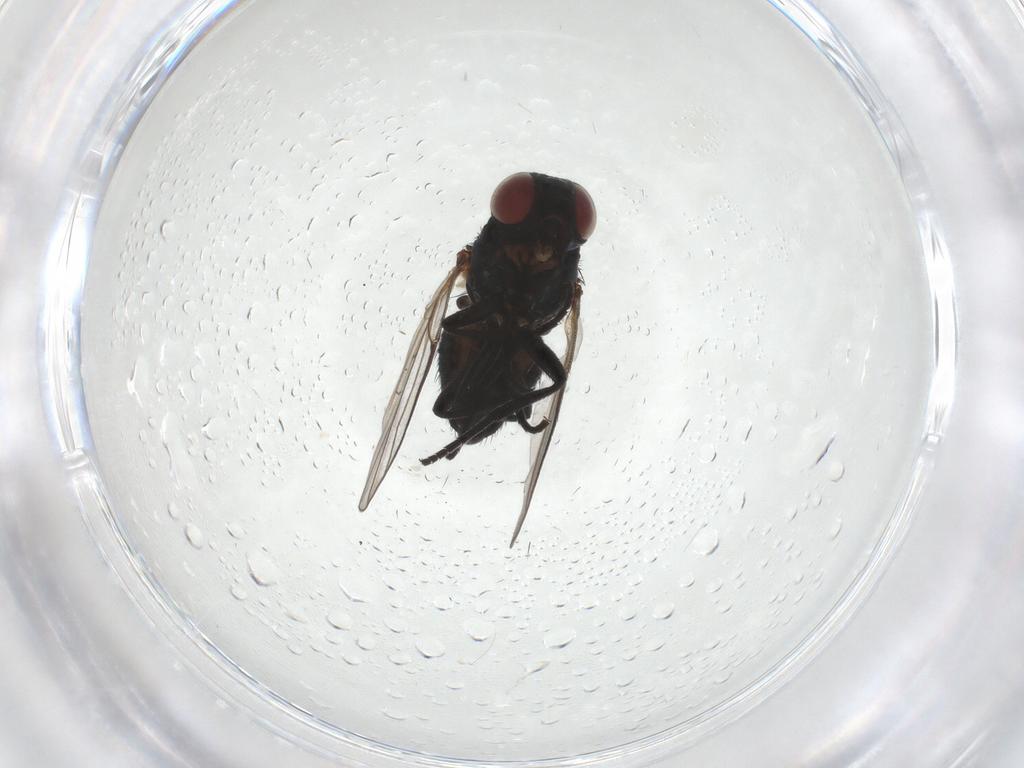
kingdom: Animalia
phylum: Arthropoda
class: Insecta
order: Diptera
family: Agromyzidae
